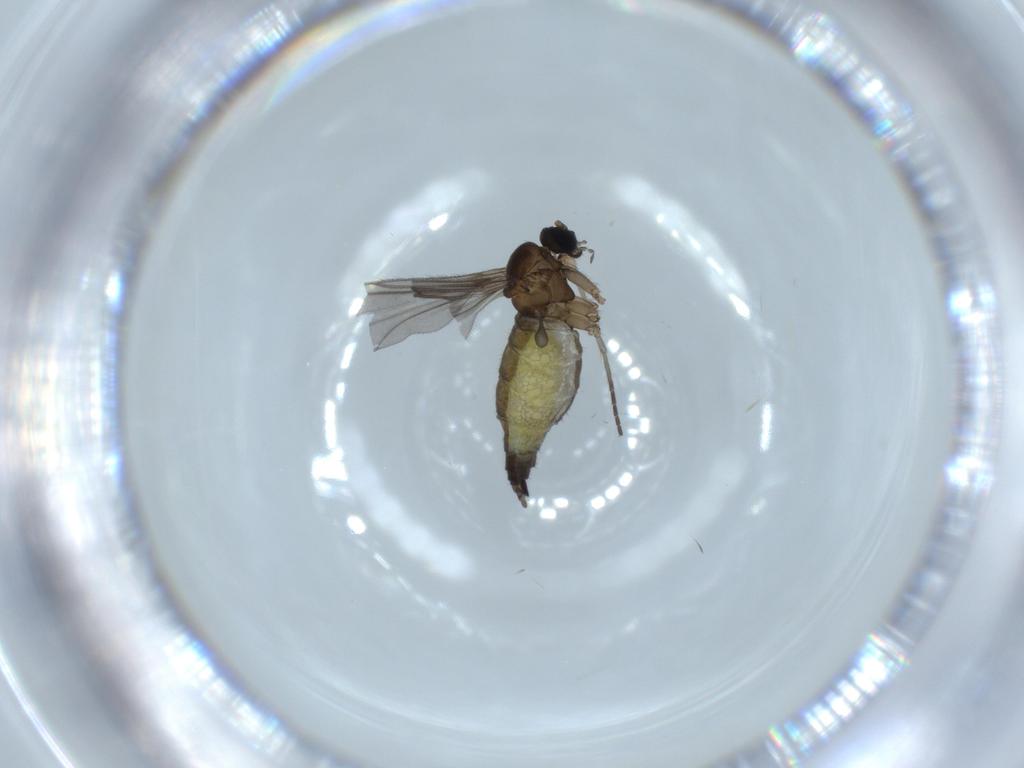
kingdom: Animalia
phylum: Arthropoda
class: Insecta
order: Diptera
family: Sciaridae
